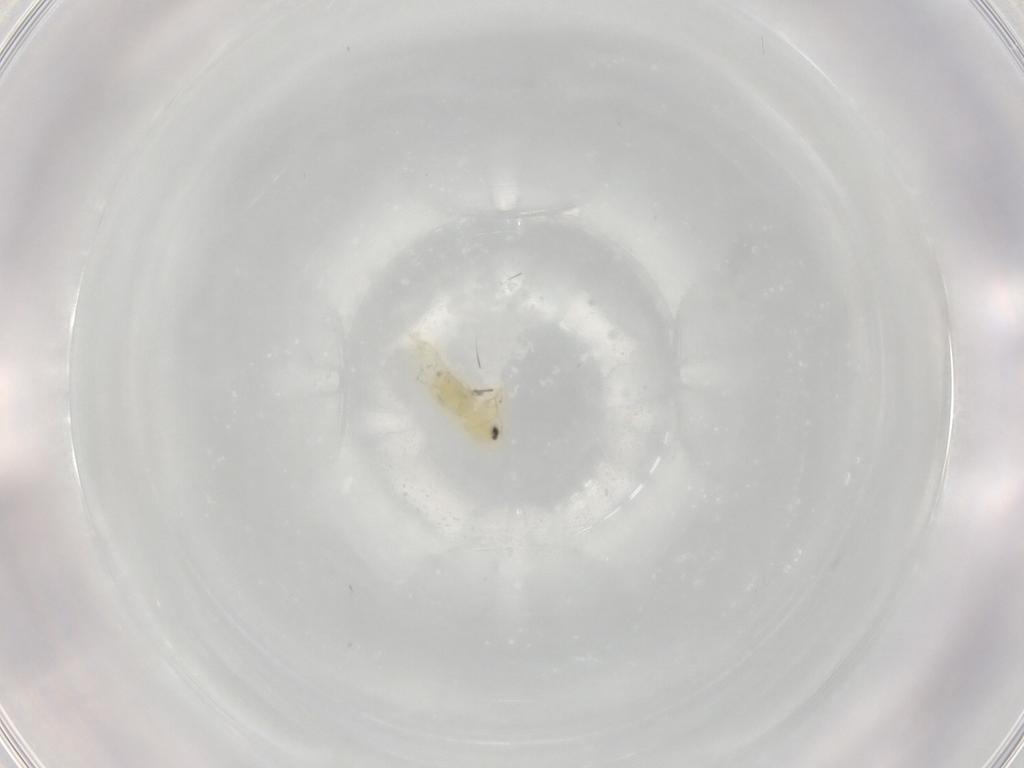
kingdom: Animalia
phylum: Arthropoda
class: Insecta
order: Hemiptera
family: Aleyrodidae
